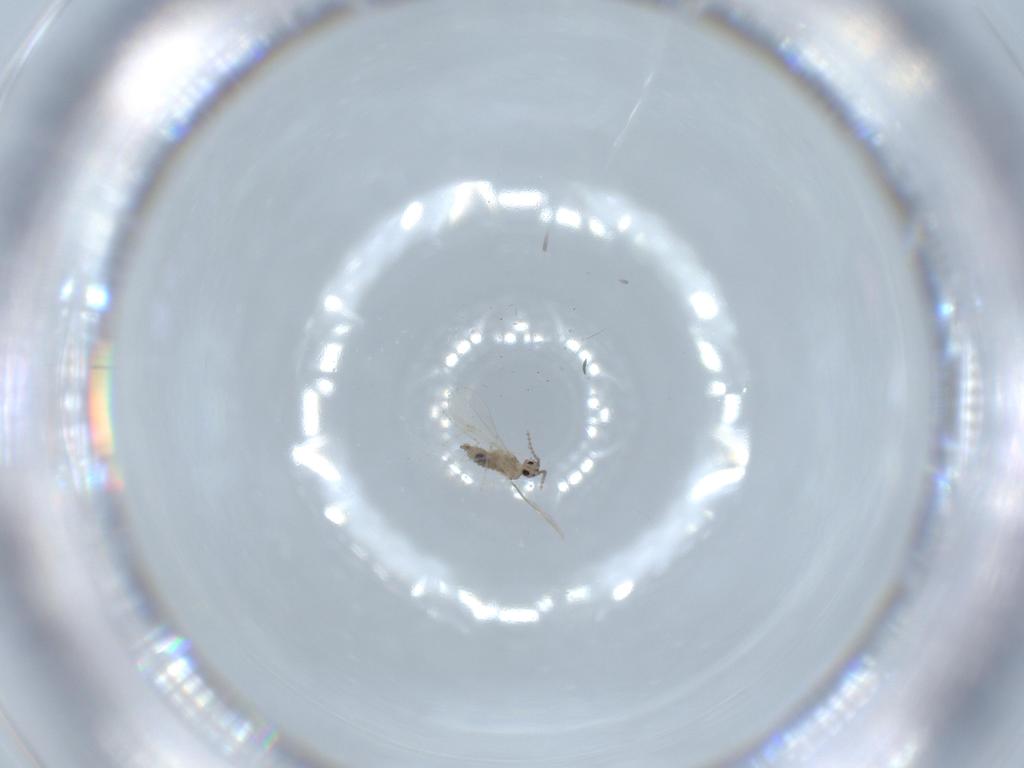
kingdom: Animalia
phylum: Arthropoda
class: Insecta
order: Diptera
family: Cecidomyiidae
